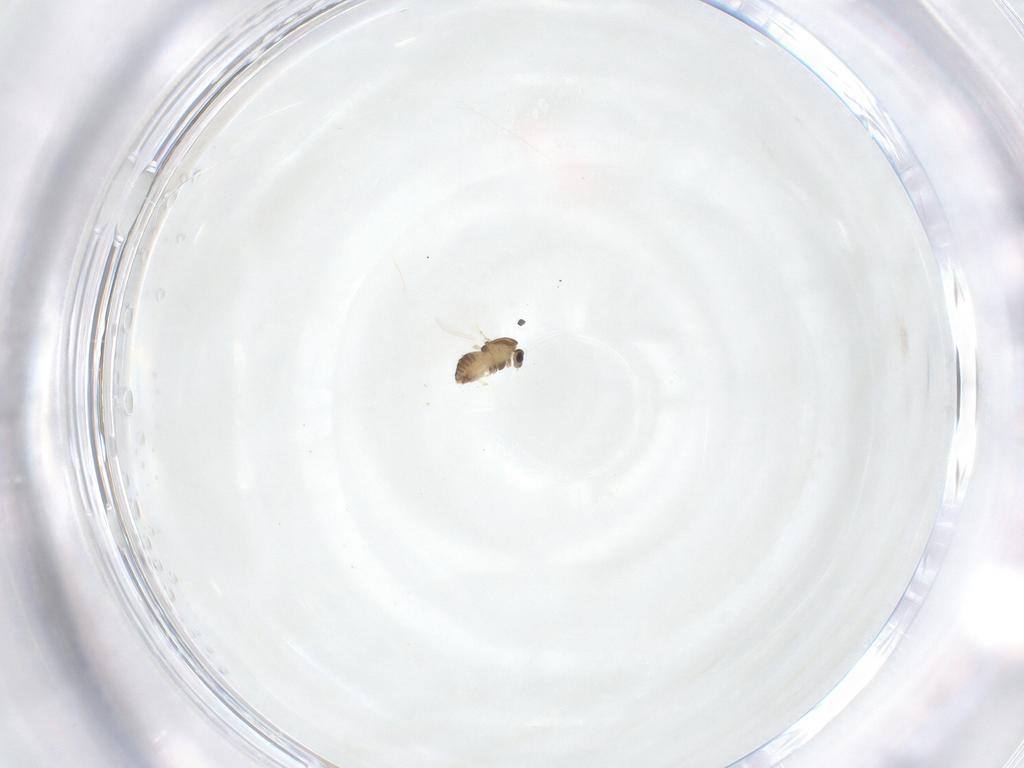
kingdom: Animalia
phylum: Arthropoda
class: Insecta
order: Diptera
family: Chironomidae
